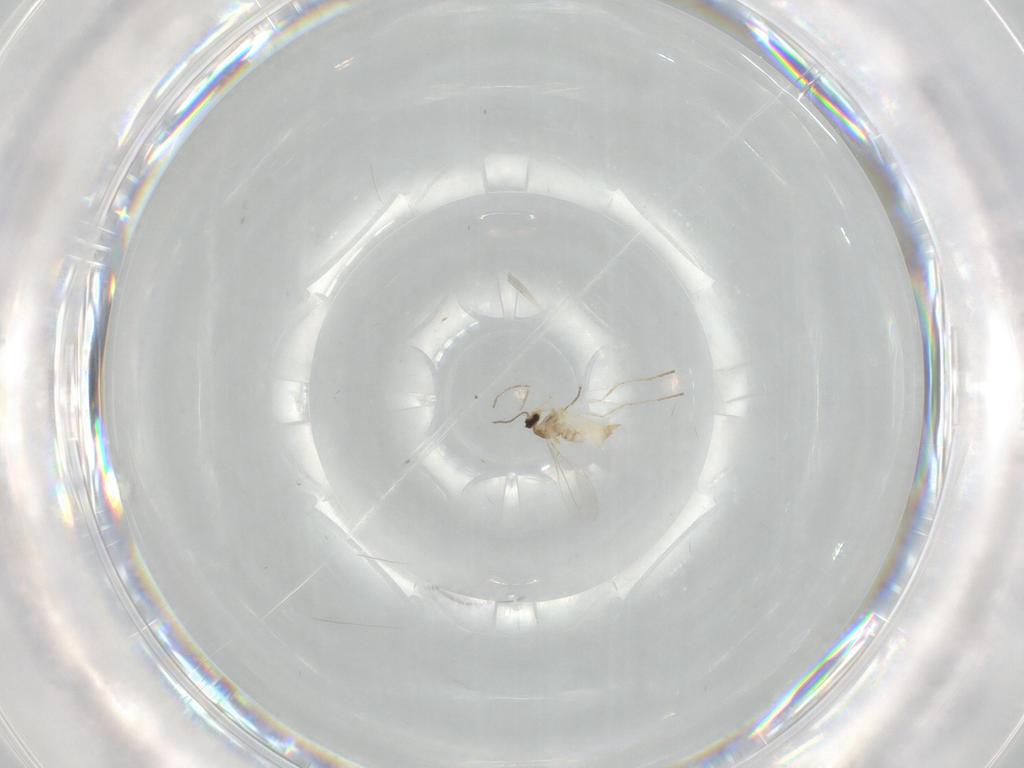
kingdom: Animalia
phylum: Arthropoda
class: Insecta
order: Diptera
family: Cecidomyiidae
